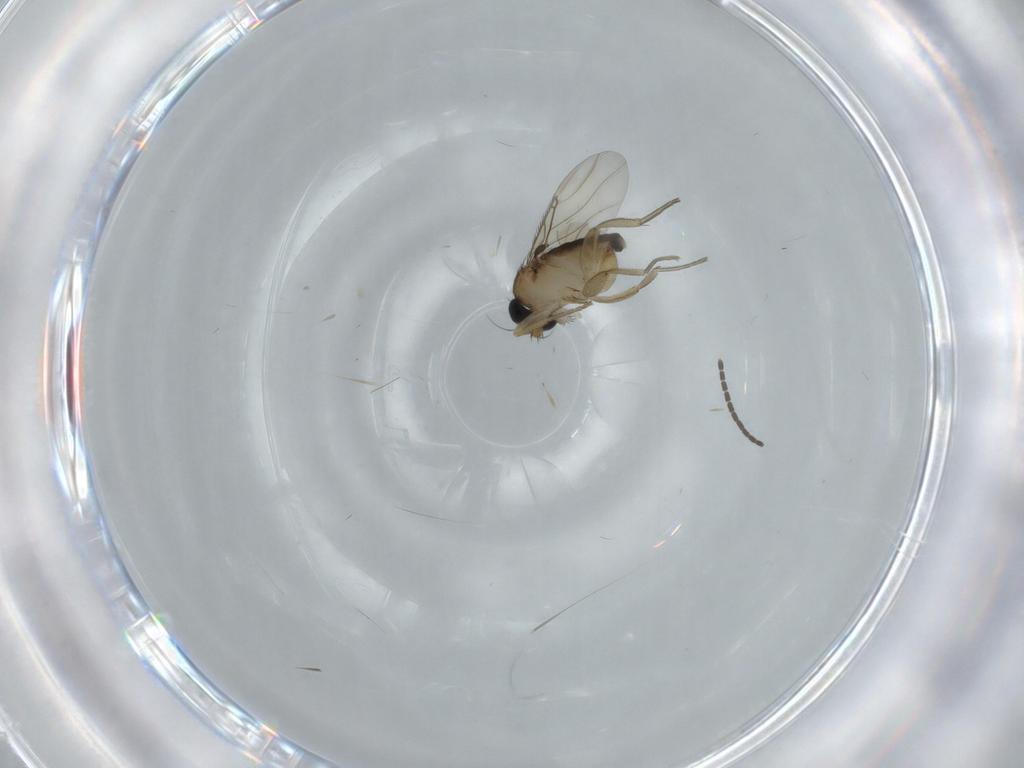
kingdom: Animalia
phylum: Arthropoda
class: Insecta
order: Diptera
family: Phoridae
